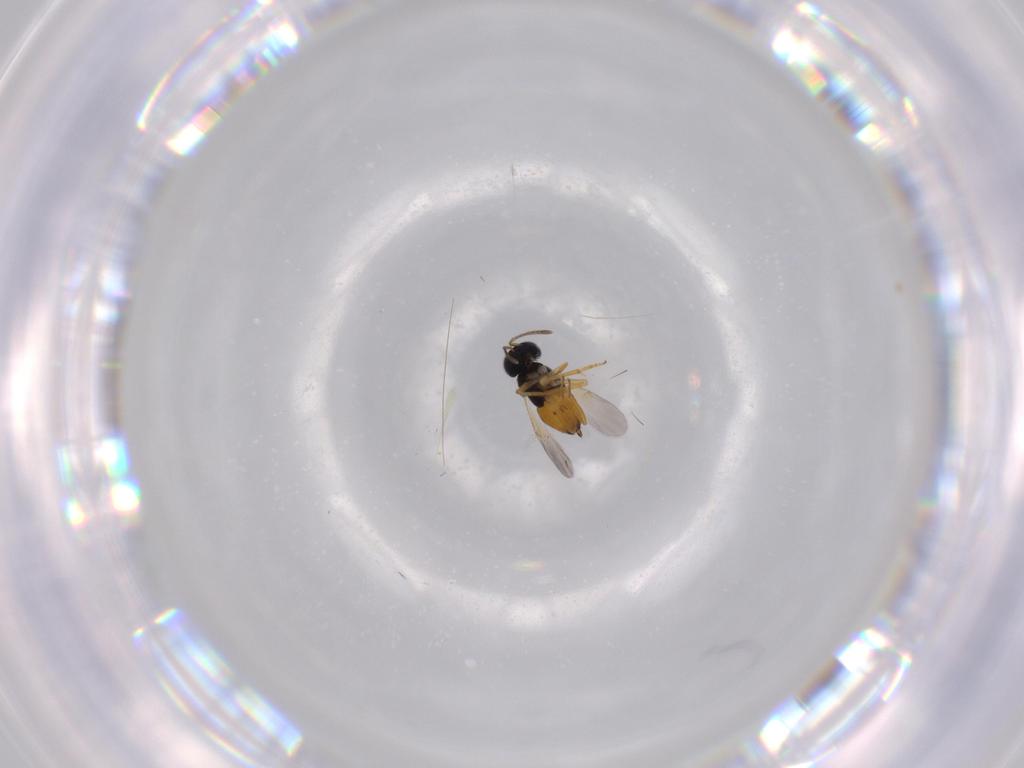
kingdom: Animalia
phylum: Arthropoda
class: Insecta
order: Hymenoptera
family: Encyrtidae
